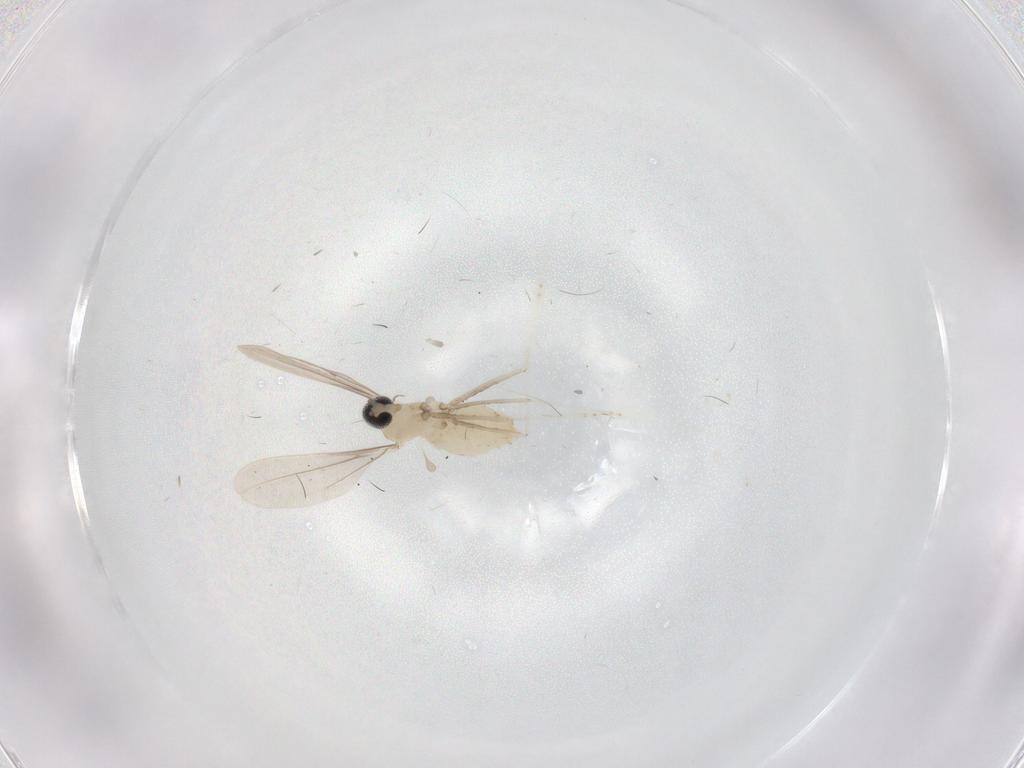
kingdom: Animalia
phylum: Arthropoda
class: Insecta
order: Diptera
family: Cecidomyiidae
